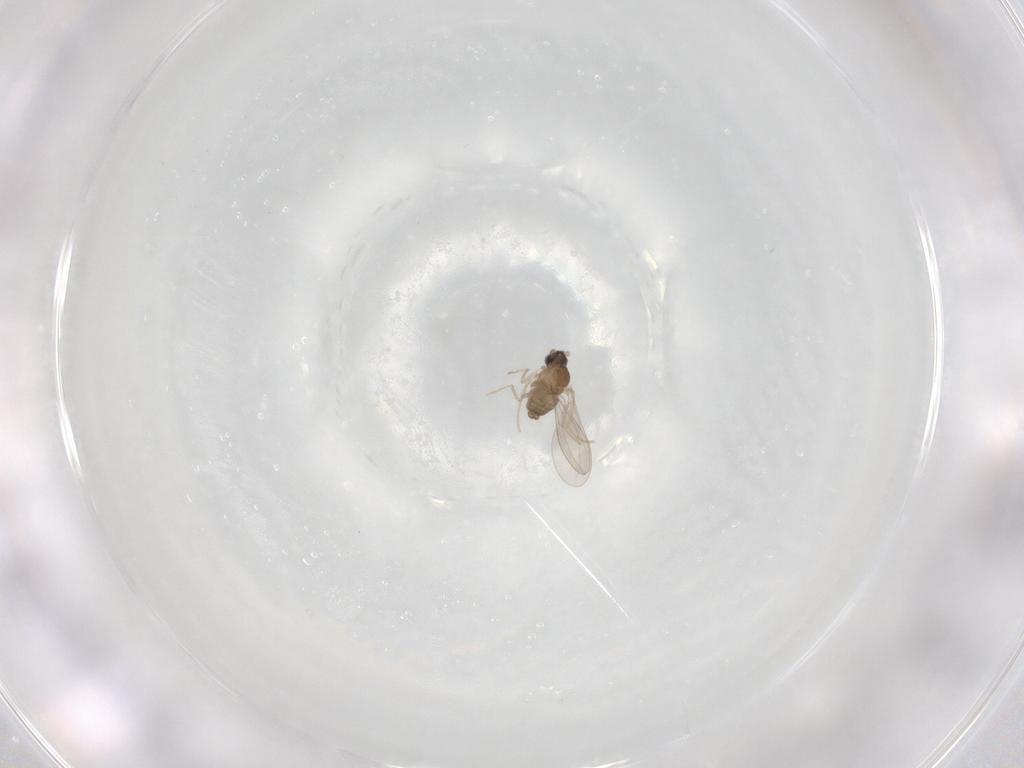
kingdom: Animalia
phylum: Arthropoda
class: Insecta
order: Diptera
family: Cecidomyiidae
